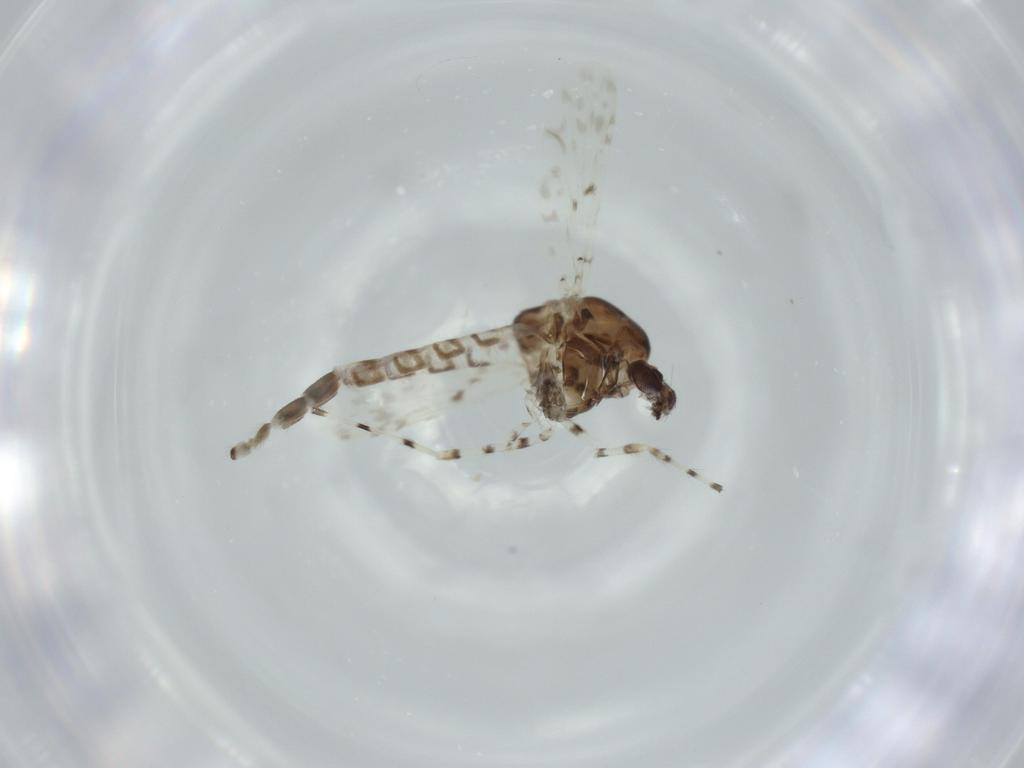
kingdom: Animalia
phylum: Arthropoda
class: Insecta
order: Diptera
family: Chironomidae
